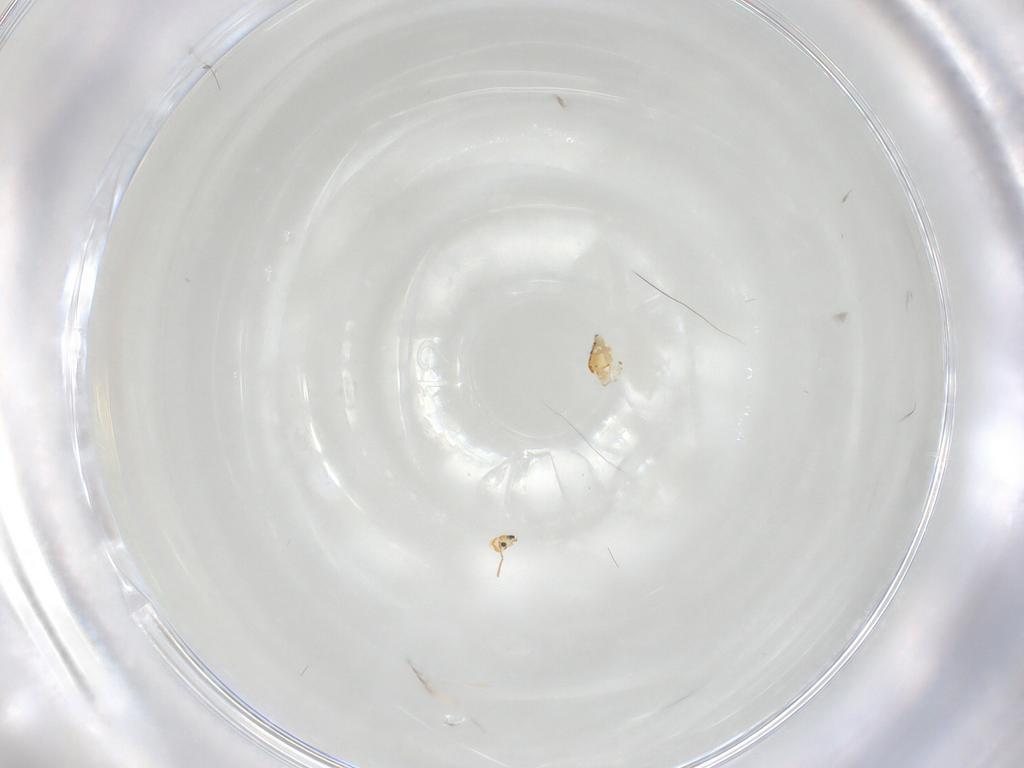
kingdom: Animalia
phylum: Arthropoda
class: Collembola
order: Symphypleona
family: Bourletiellidae
